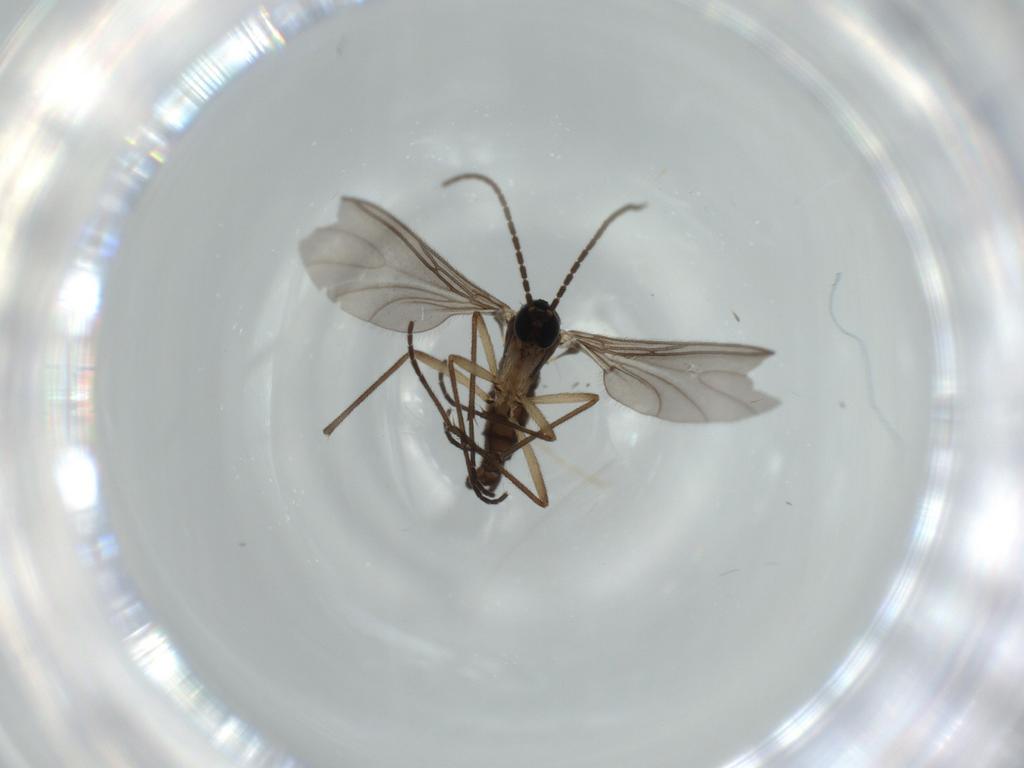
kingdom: Animalia
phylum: Arthropoda
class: Insecta
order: Diptera
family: Sciaridae
